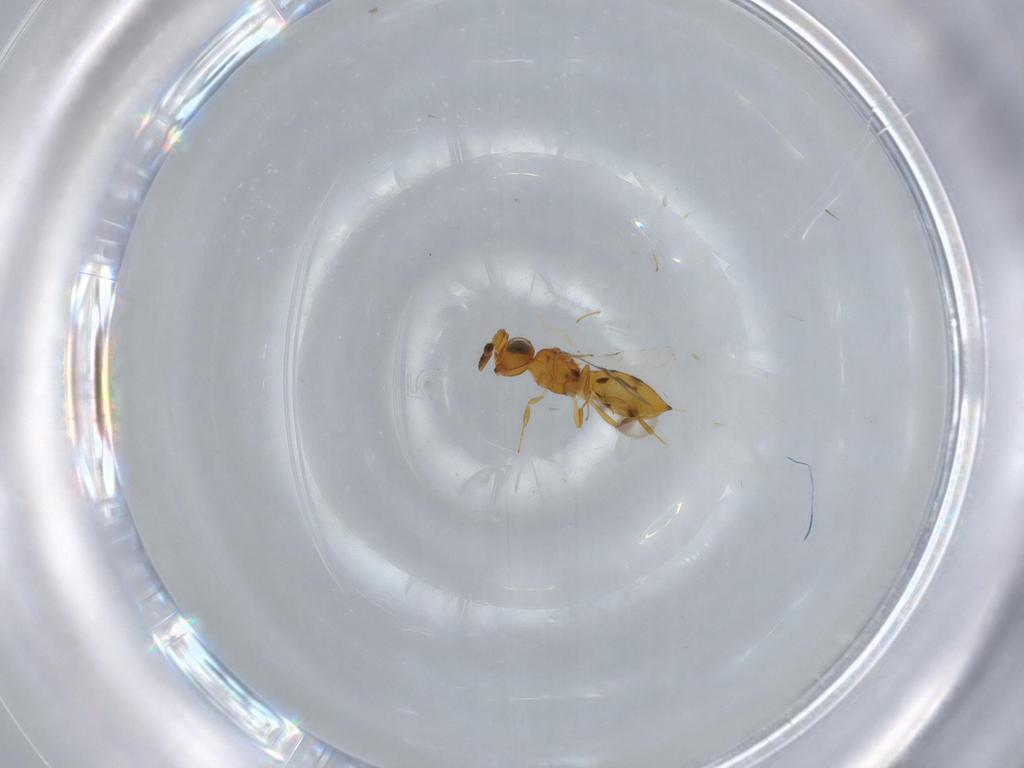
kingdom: Animalia
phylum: Arthropoda
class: Insecta
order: Hymenoptera
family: Scelionidae
